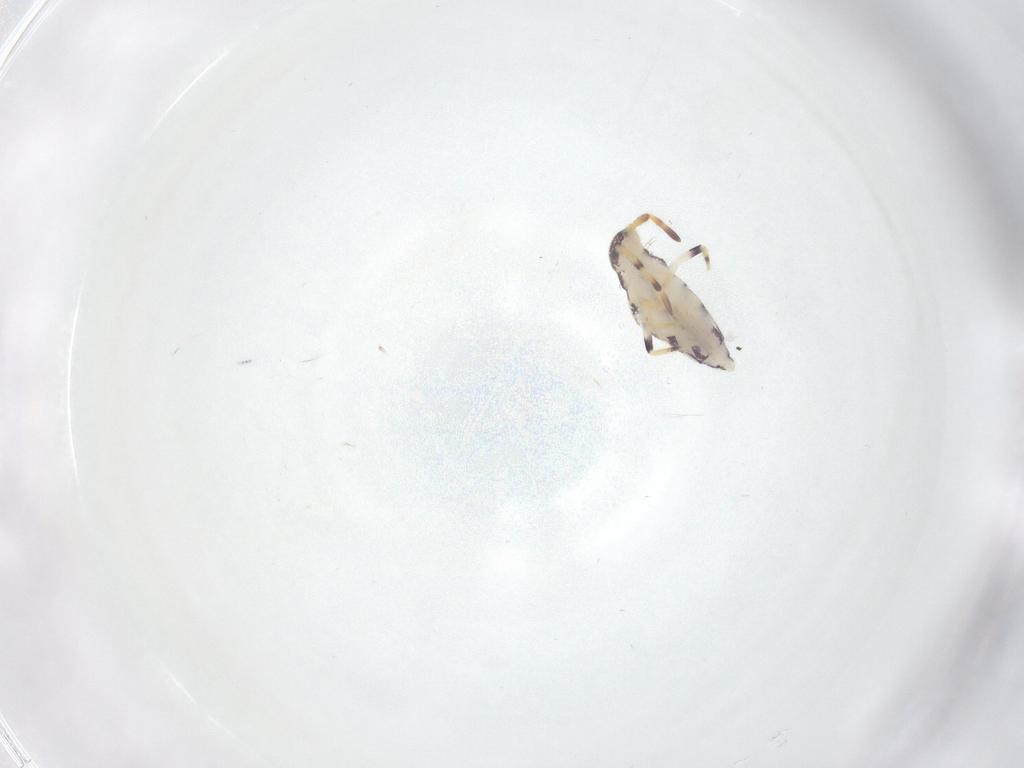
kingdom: Animalia
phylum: Arthropoda
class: Collembola
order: Entomobryomorpha
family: Isotomidae
